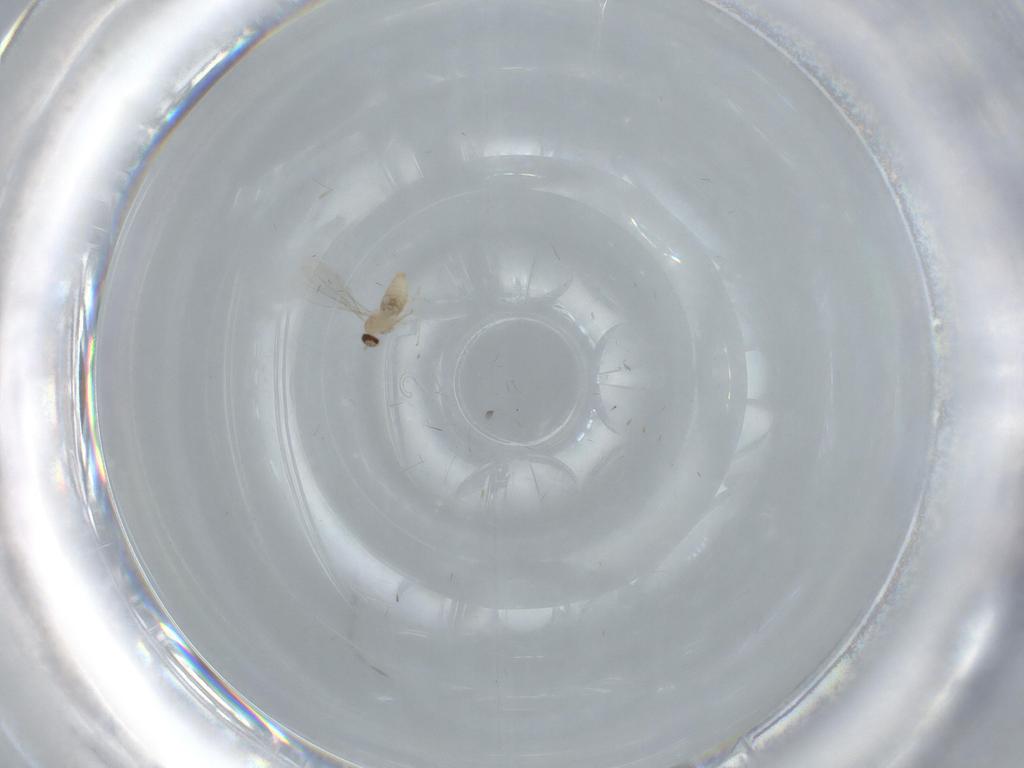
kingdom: Animalia
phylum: Arthropoda
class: Insecta
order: Diptera
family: Cecidomyiidae
